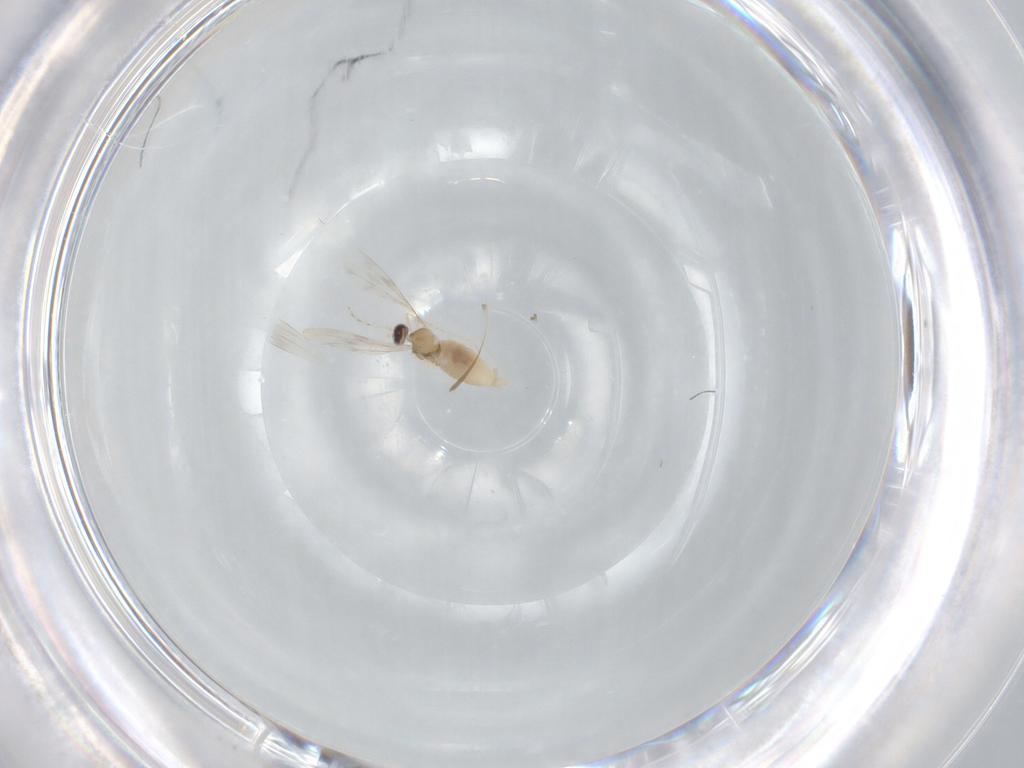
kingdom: Animalia
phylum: Arthropoda
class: Insecta
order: Diptera
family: Cecidomyiidae
